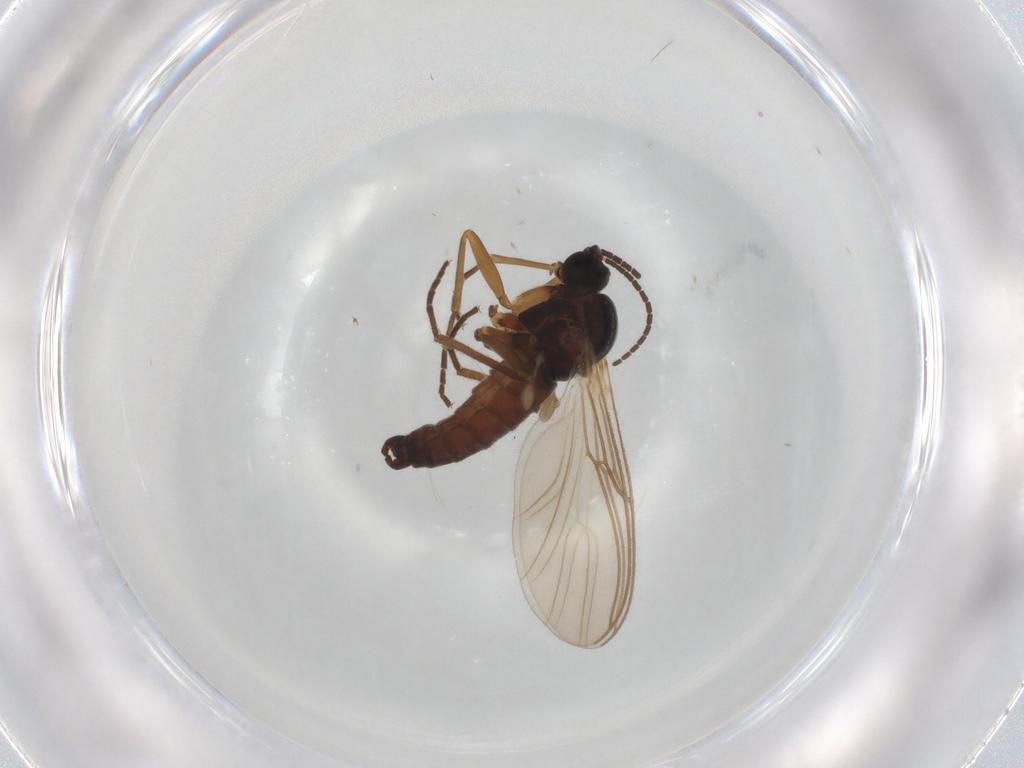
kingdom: Animalia
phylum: Arthropoda
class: Insecta
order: Diptera
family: Sciaridae
